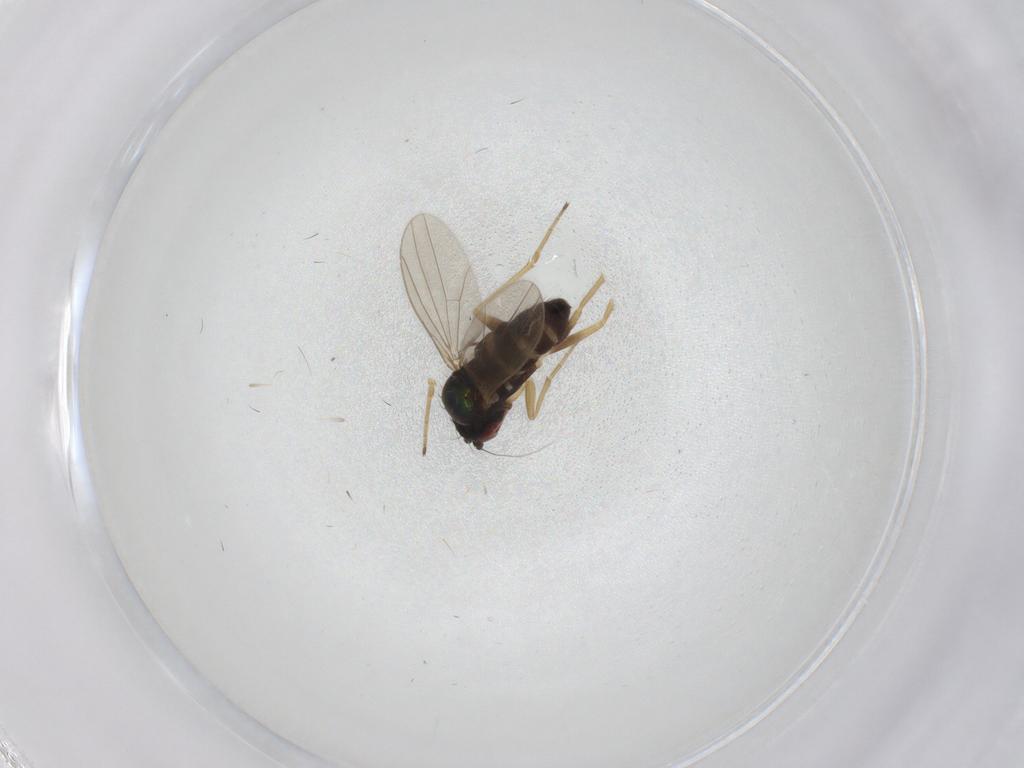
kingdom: Animalia
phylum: Arthropoda
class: Insecta
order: Diptera
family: Dolichopodidae
